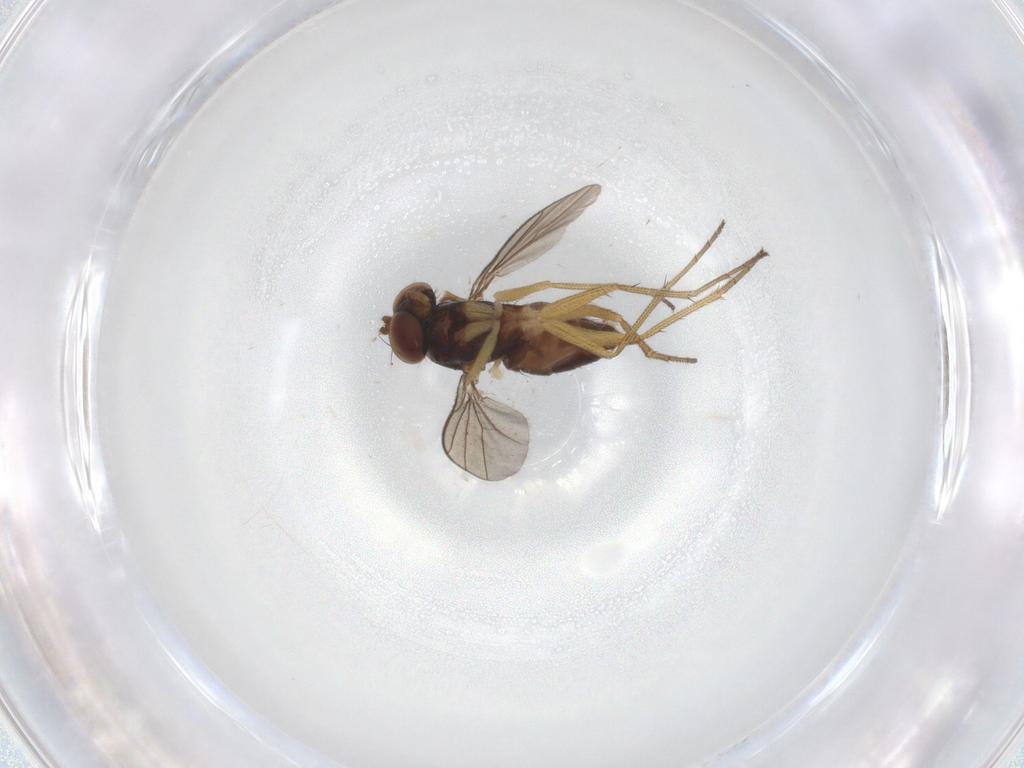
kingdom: Animalia
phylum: Arthropoda
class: Insecta
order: Diptera
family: Dolichopodidae
